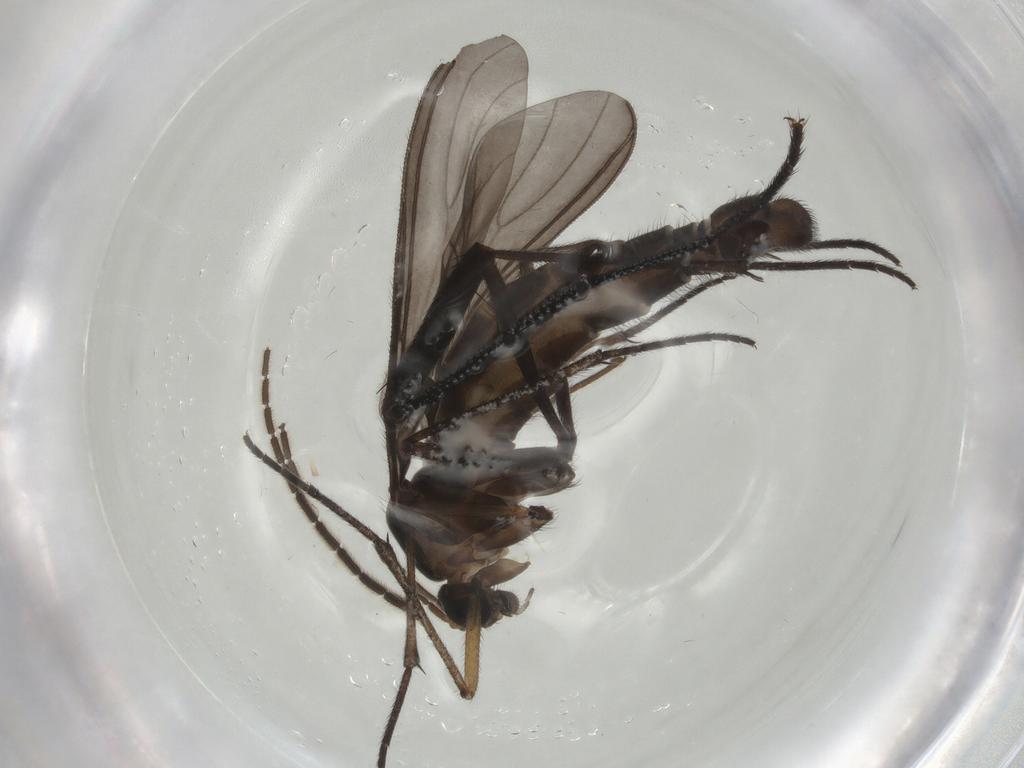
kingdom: Animalia
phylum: Arthropoda
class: Insecta
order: Diptera
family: Sciaridae
